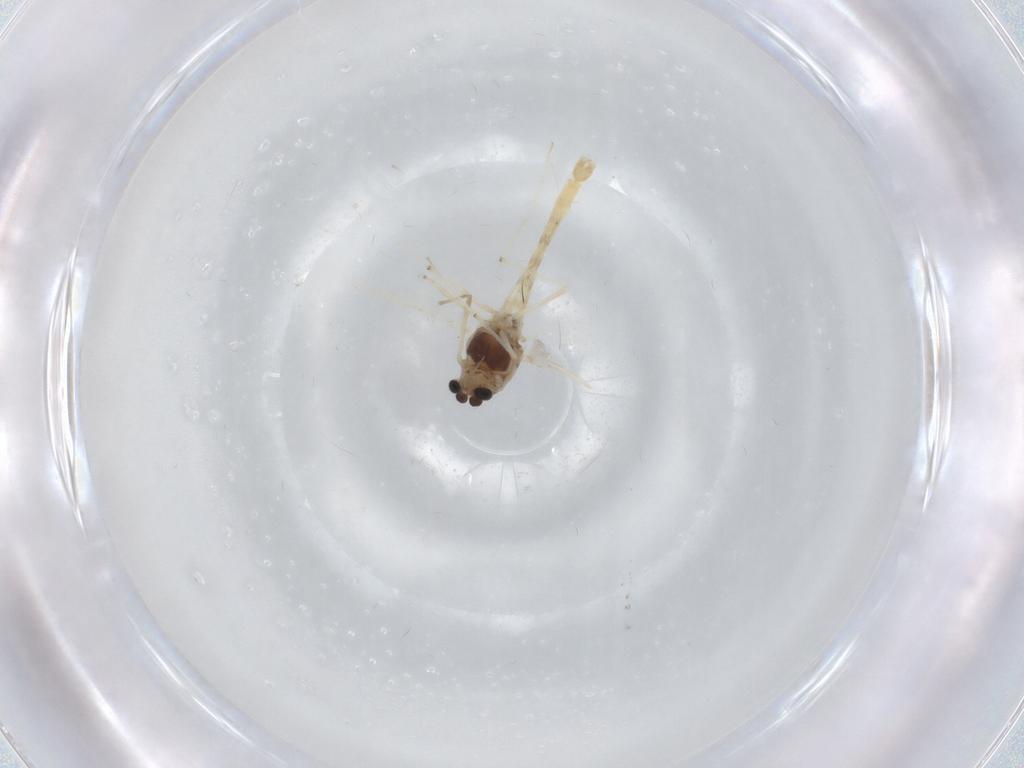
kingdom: Animalia
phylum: Arthropoda
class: Insecta
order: Diptera
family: Chironomidae
